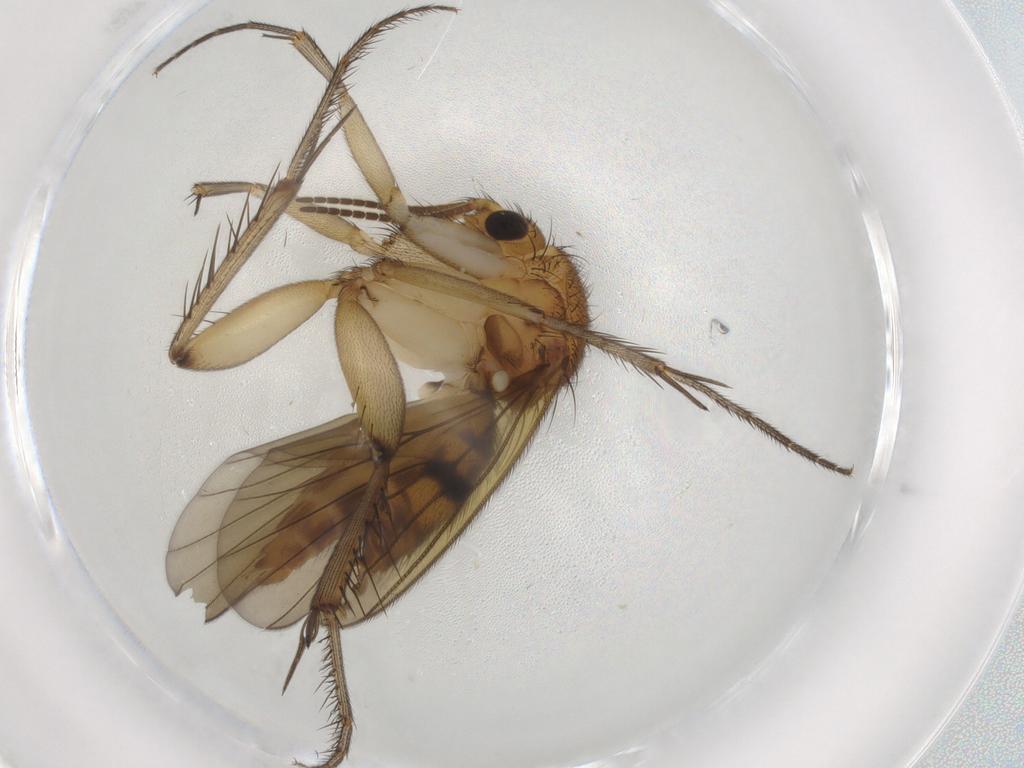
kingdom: Animalia
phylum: Arthropoda
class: Insecta
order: Diptera
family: Mycetophilidae
